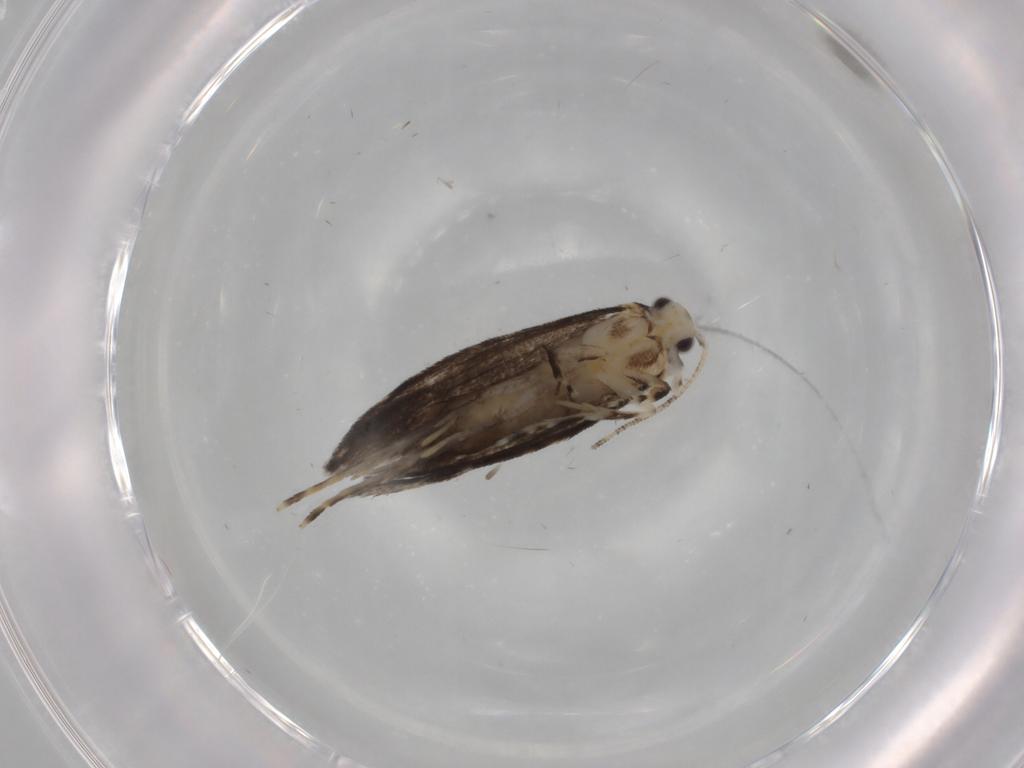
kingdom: Animalia
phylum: Arthropoda
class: Insecta
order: Lepidoptera
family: Tineidae
